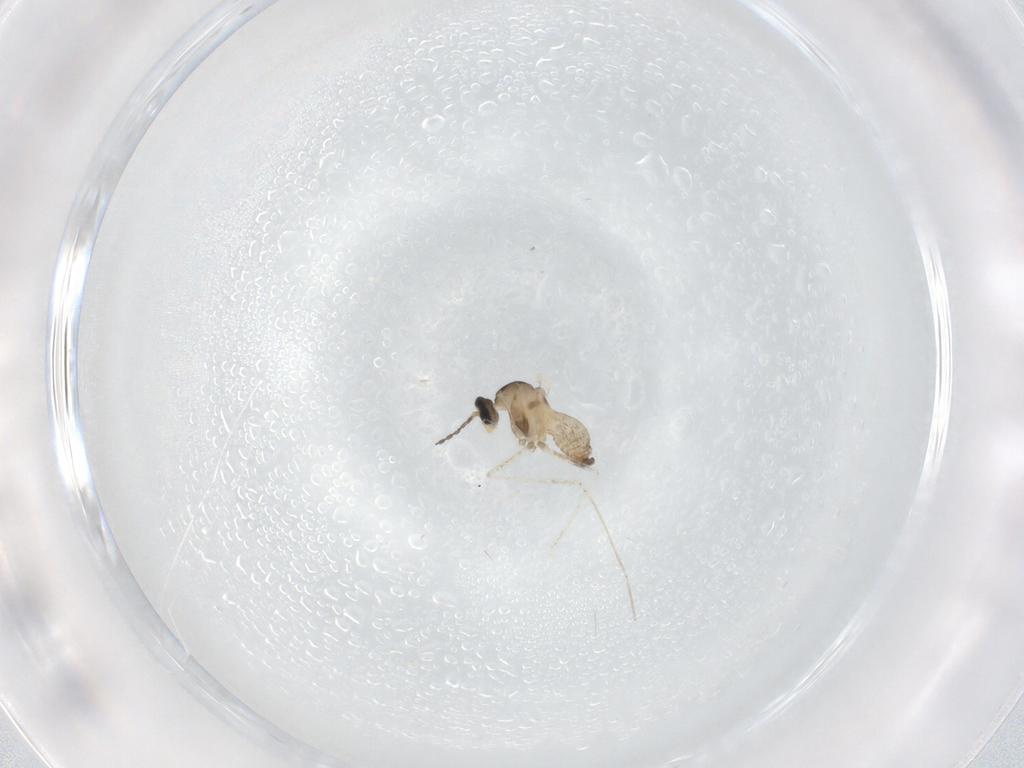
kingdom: Animalia
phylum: Arthropoda
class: Insecta
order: Diptera
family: Cecidomyiidae
